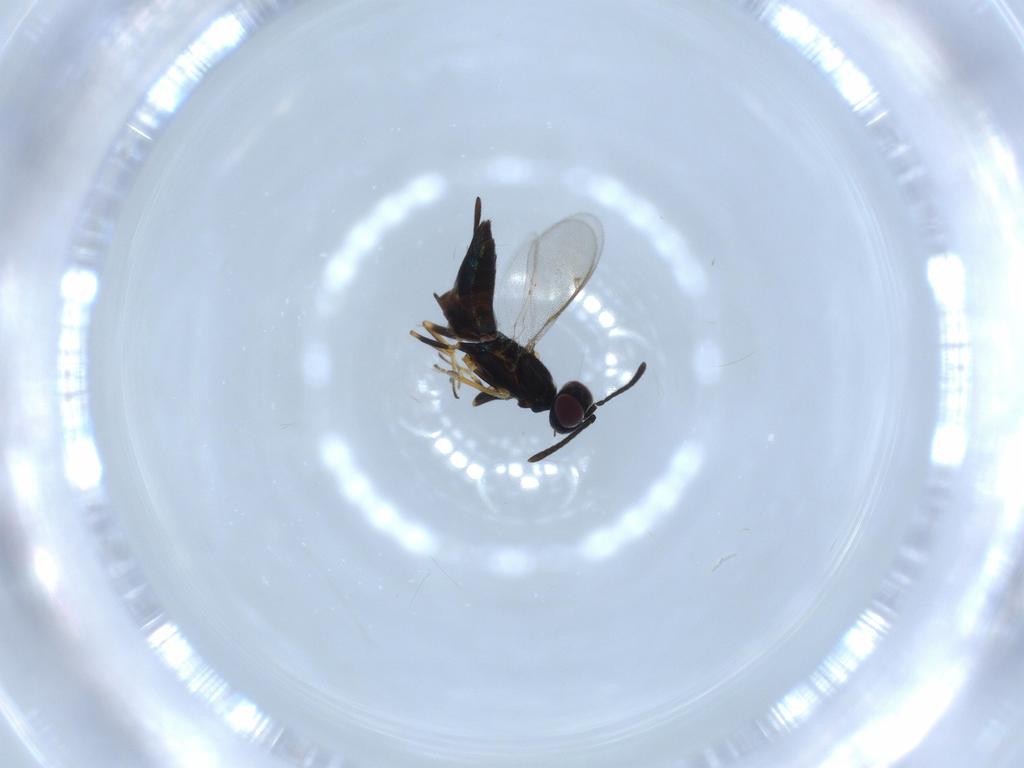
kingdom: Animalia
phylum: Arthropoda
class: Insecta
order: Hymenoptera
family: Eupelmidae
